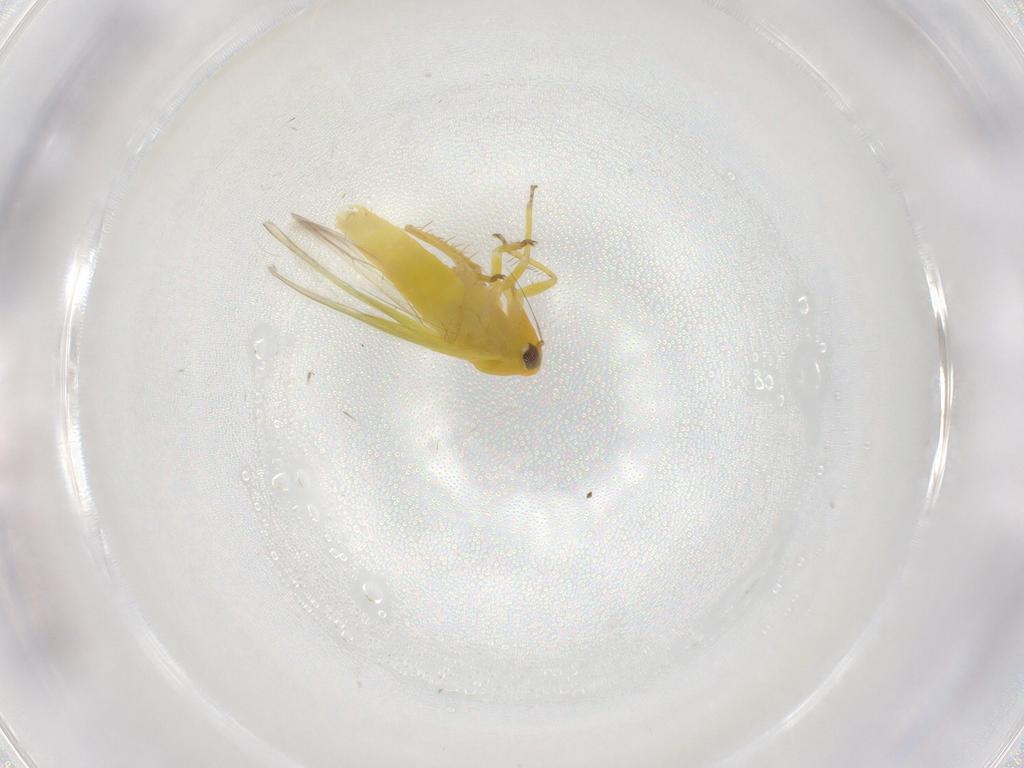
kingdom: Animalia
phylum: Arthropoda
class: Insecta
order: Hemiptera
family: Cicadellidae
